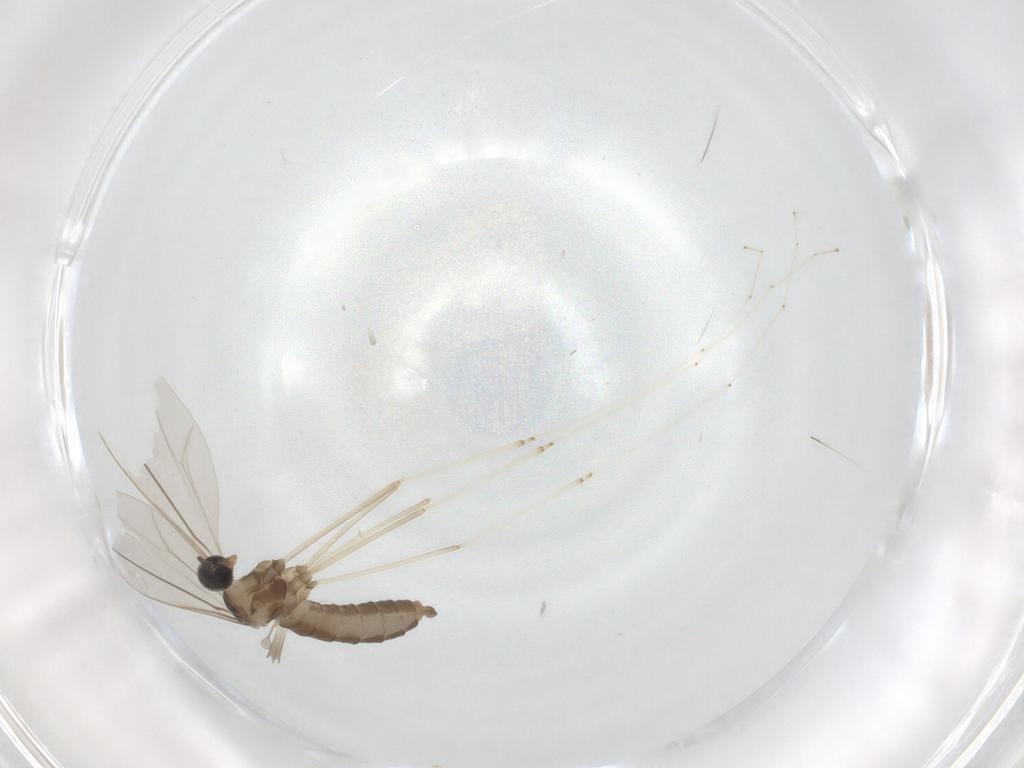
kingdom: Animalia
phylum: Arthropoda
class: Insecta
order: Diptera
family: Cecidomyiidae
